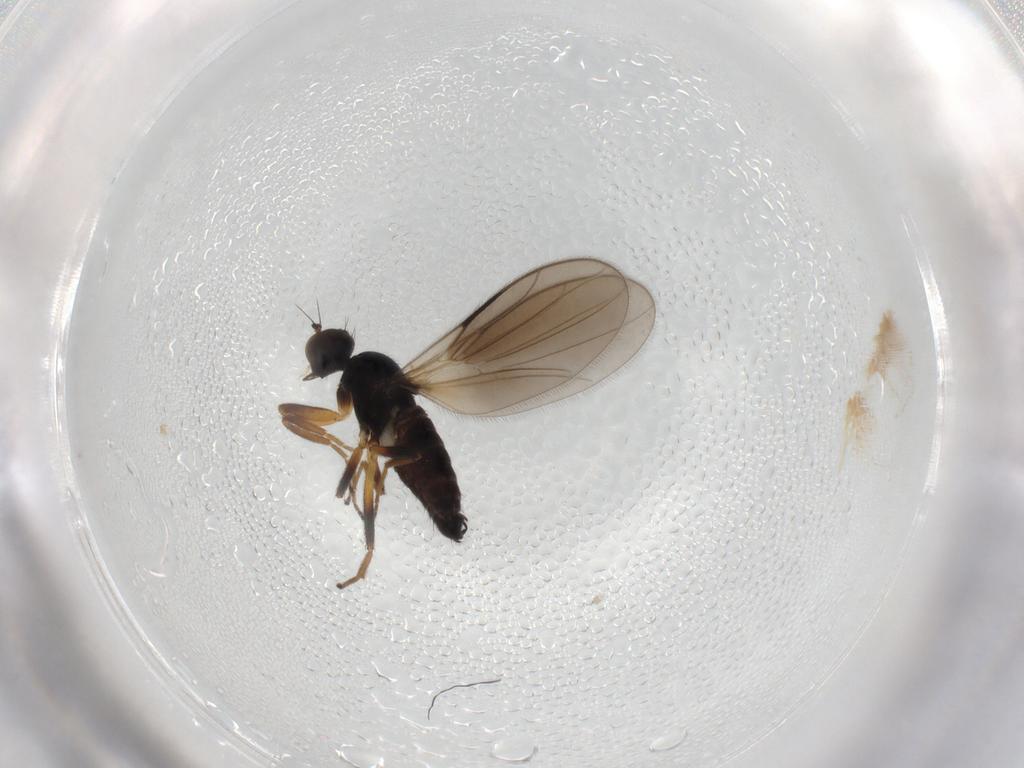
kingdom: Animalia
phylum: Arthropoda
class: Insecta
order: Diptera
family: Hybotidae
